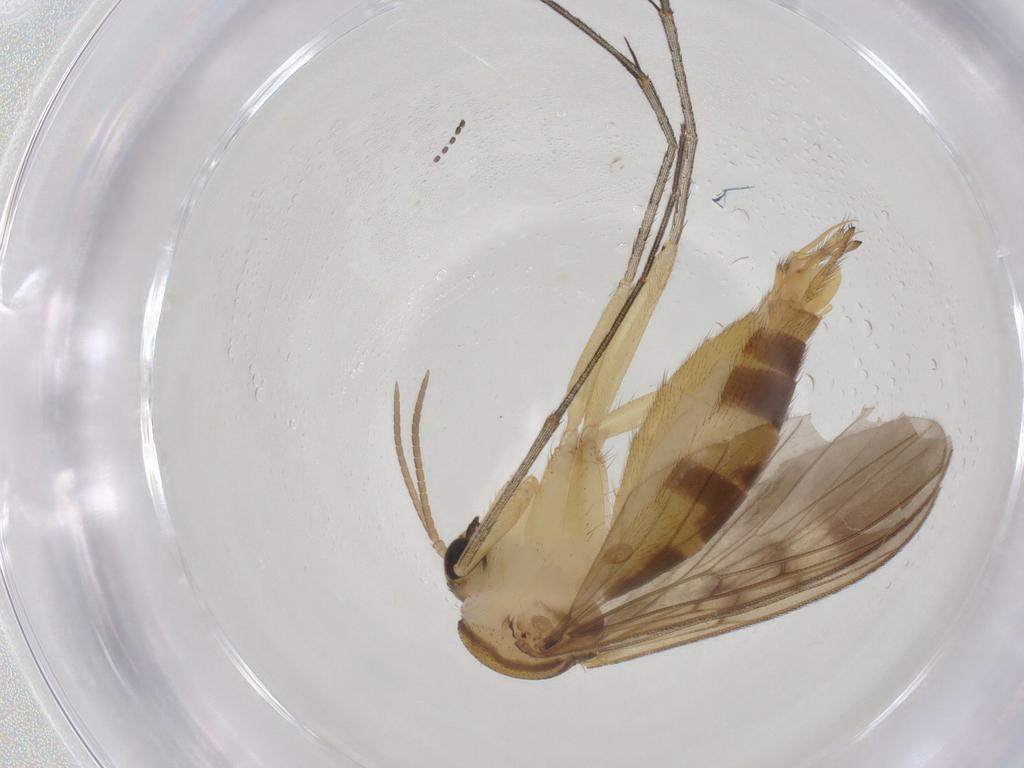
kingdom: Animalia
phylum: Arthropoda
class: Insecta
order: Diptera
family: Mycetophilidae
